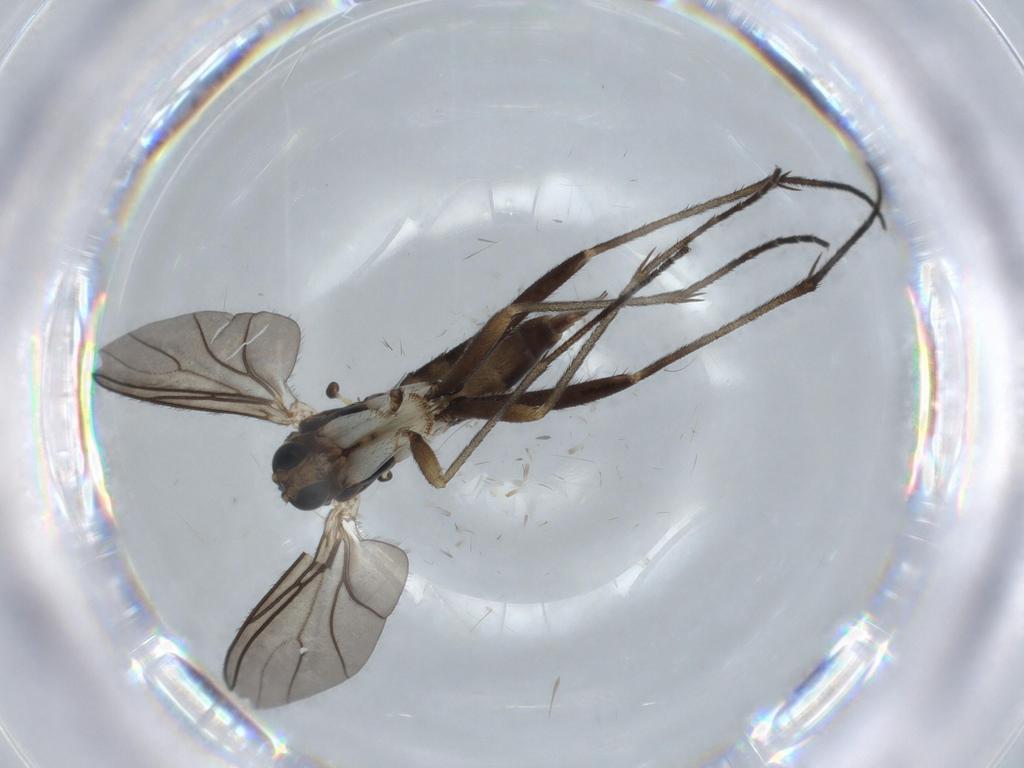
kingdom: Animalia
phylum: Arthropoda
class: Insecta
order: Diptera
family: Sciaridae
